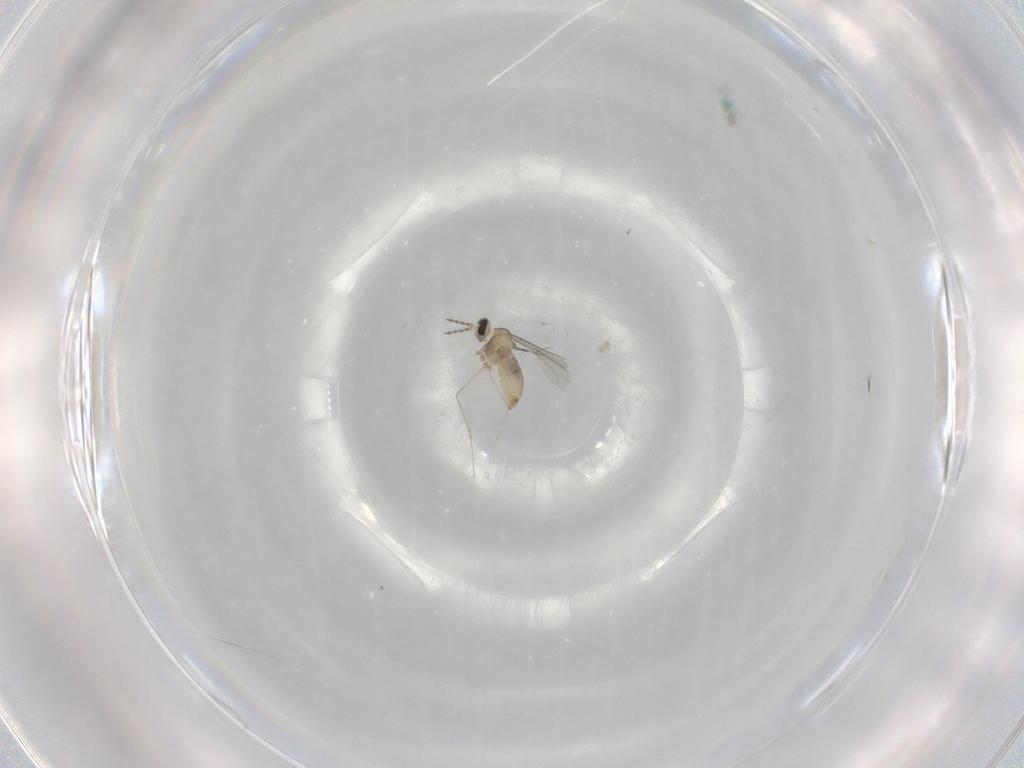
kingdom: Animalia
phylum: Arthropoda
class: Insecta
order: Diptera
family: Cecidomyiidae
